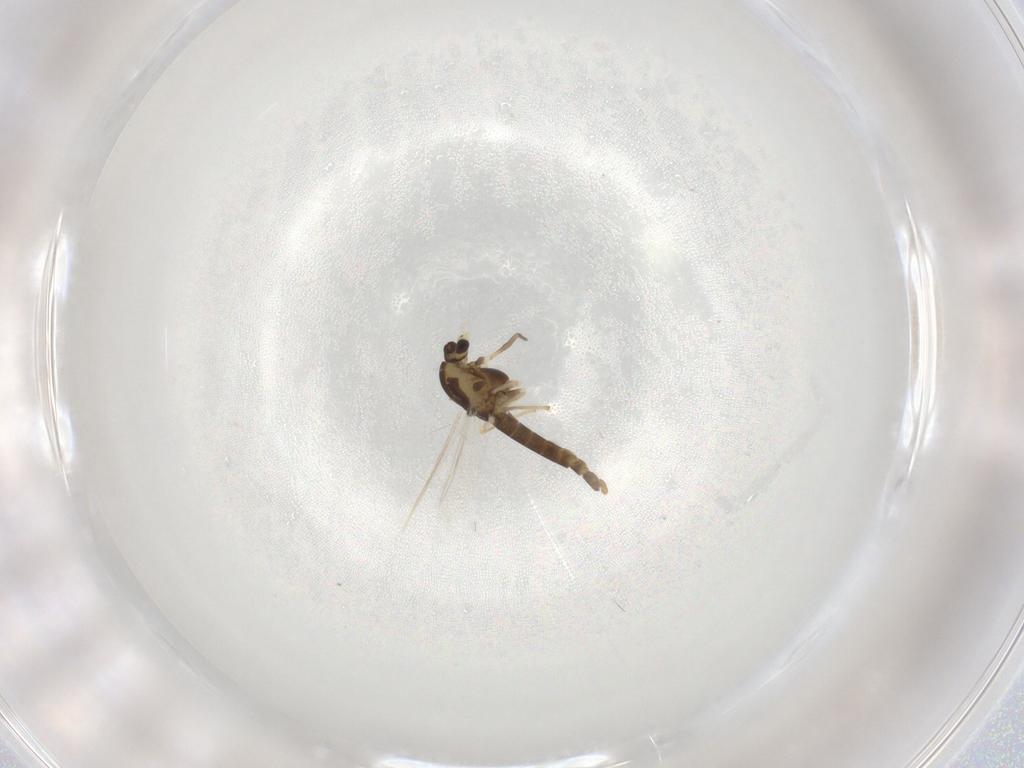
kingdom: Animalia
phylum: Arthropoda
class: Insecta
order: Diptera
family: Chironomidae
